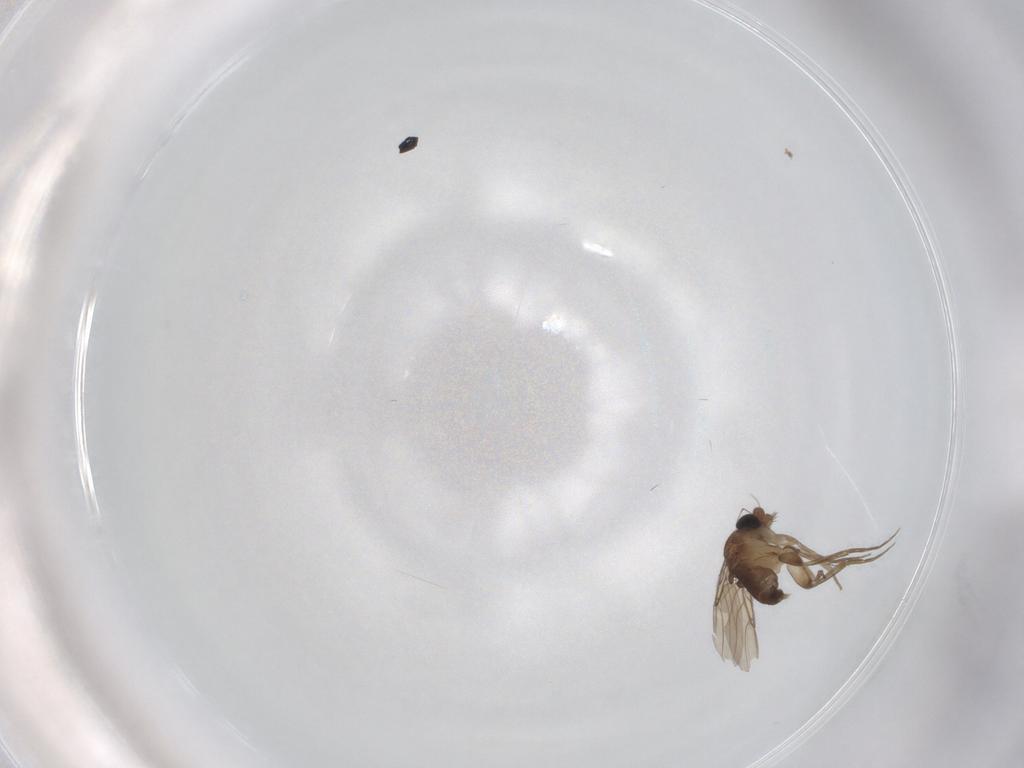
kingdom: Animalia
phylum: Arthropoda
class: Insecta
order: Diptera
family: Phoridae
